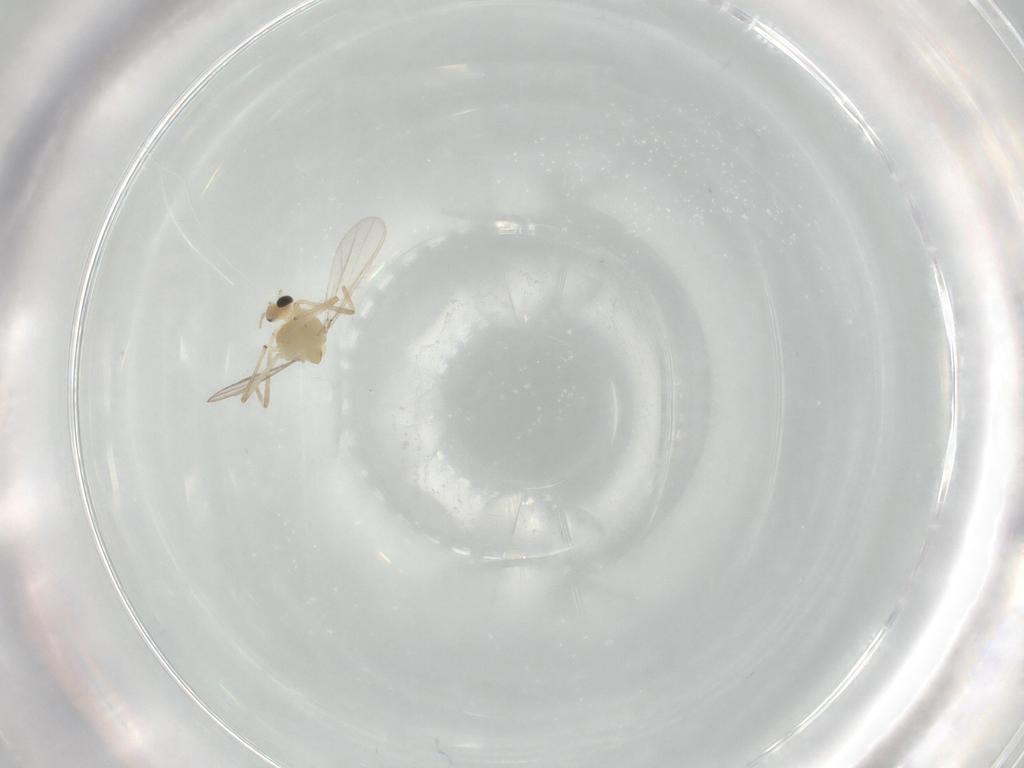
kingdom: Animalia
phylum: Arthropoda
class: Insecta
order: Diptera
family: Chironomidae
